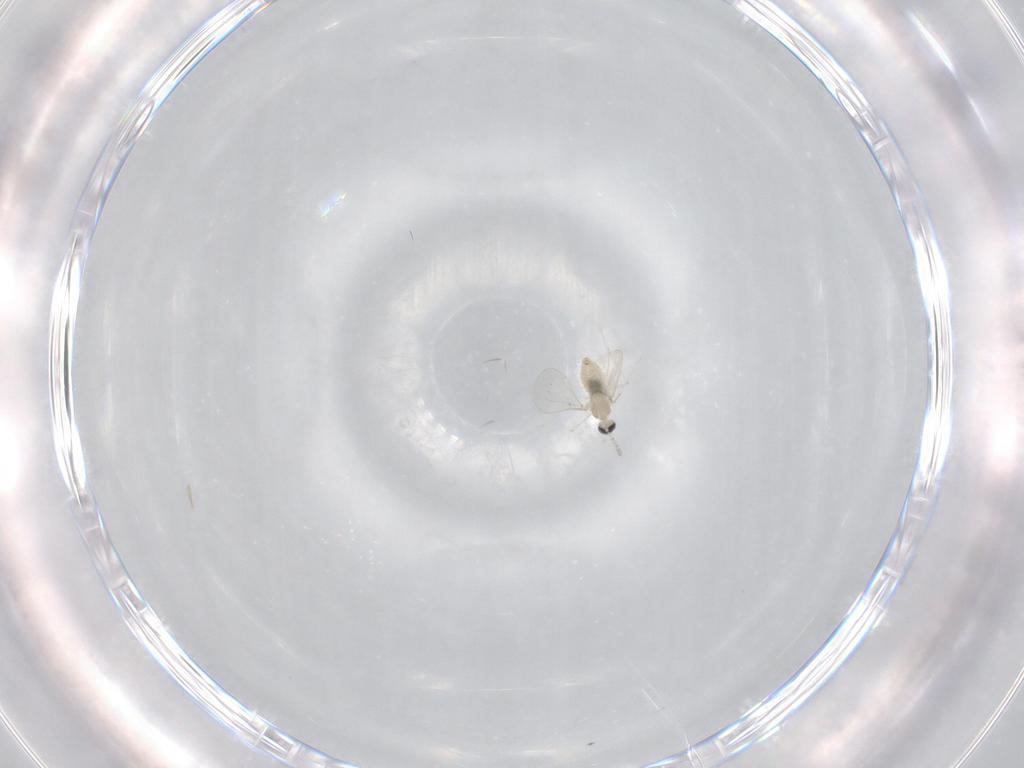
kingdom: Animalia
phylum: Arthropoda
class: Insecta
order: Diptera
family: Cecidomyiidae
